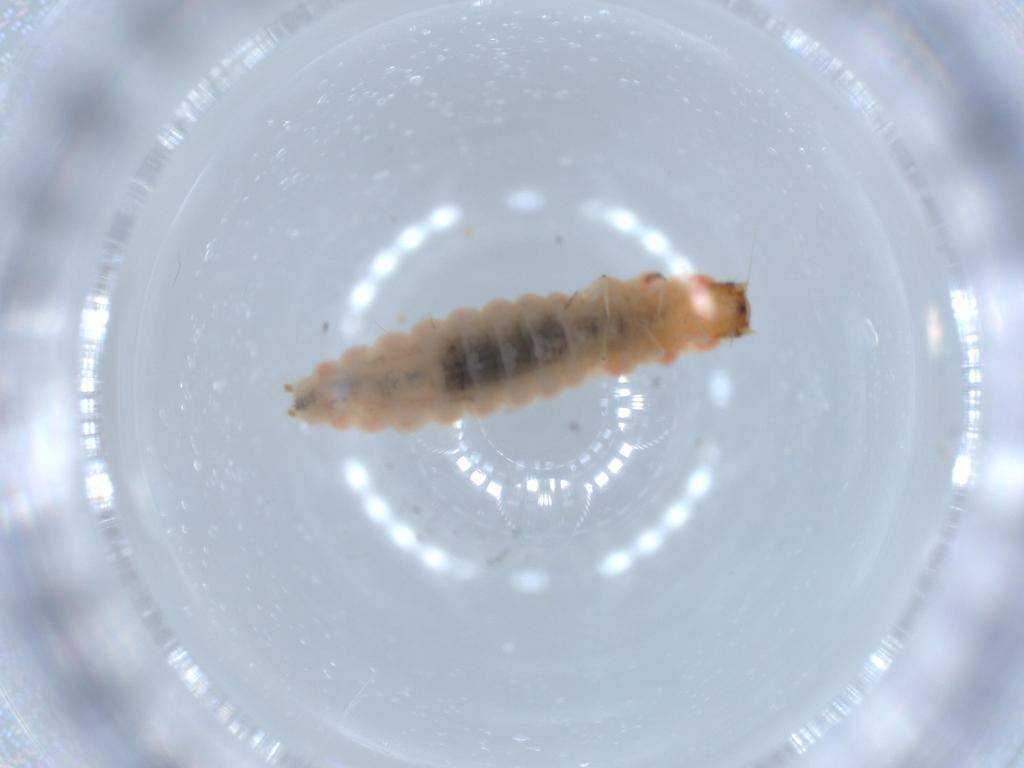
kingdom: Animalia
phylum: Arthropoda
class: Insecta
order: Coleoptera
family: Melyridae
